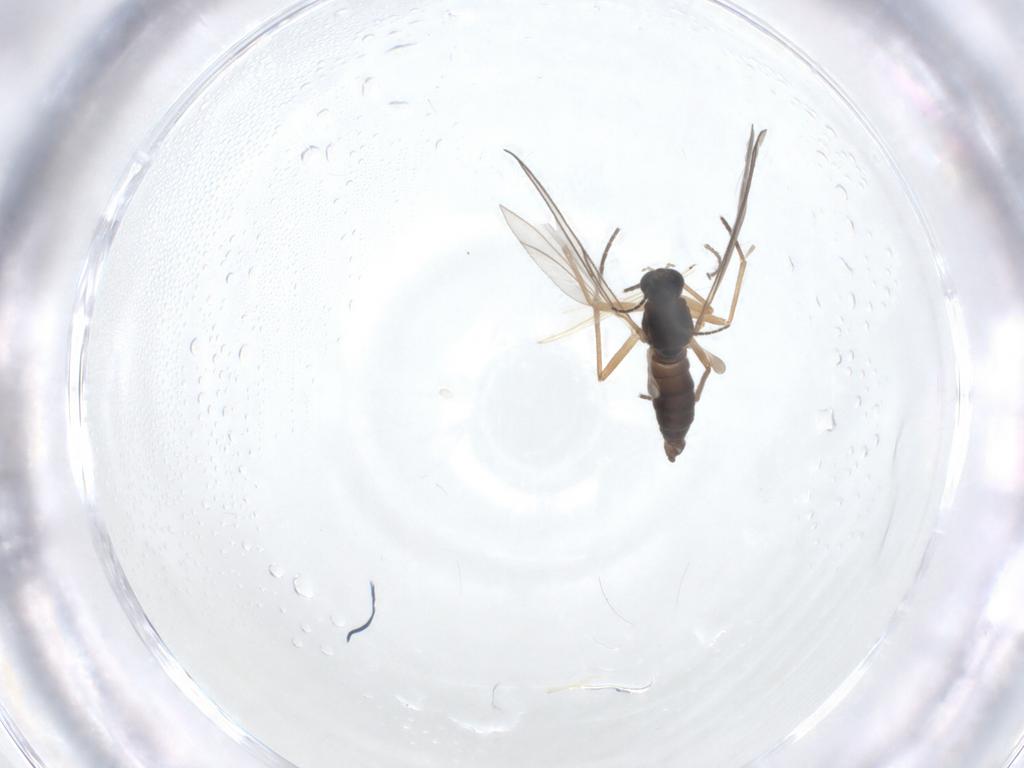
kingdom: Animalia
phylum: Arthropoda
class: Insecta
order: Diptera
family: Cecidomyiidae
